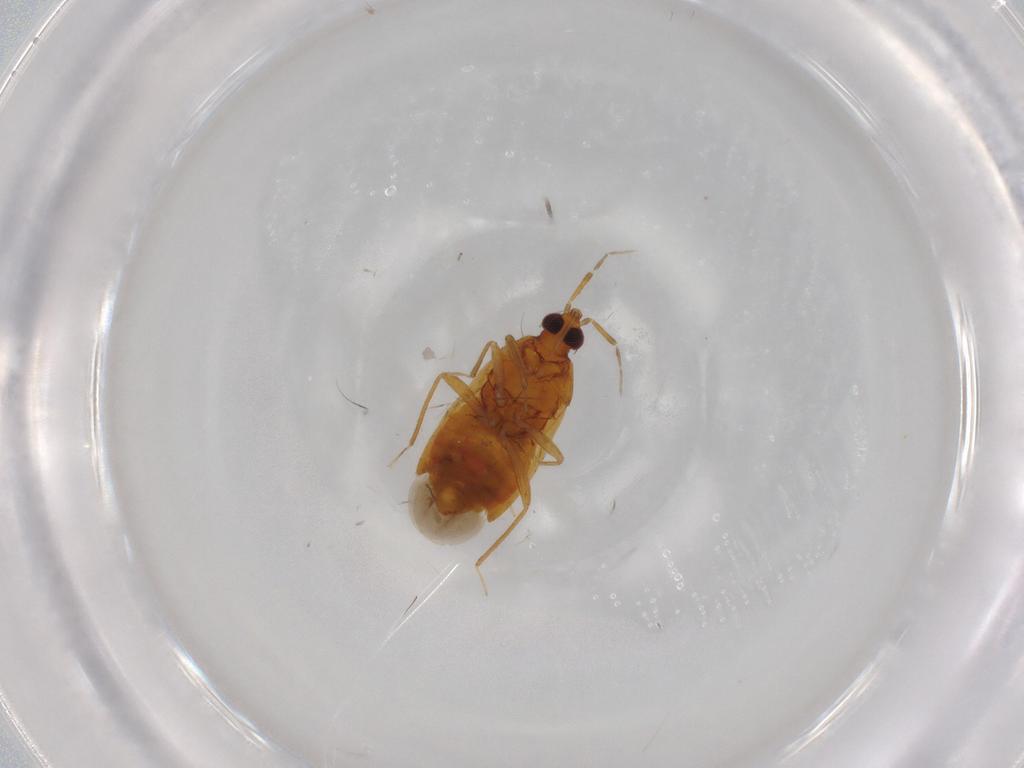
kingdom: Animalia
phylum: Arthropoda
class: Insecta
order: Hemiptera
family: Anthocoridae
